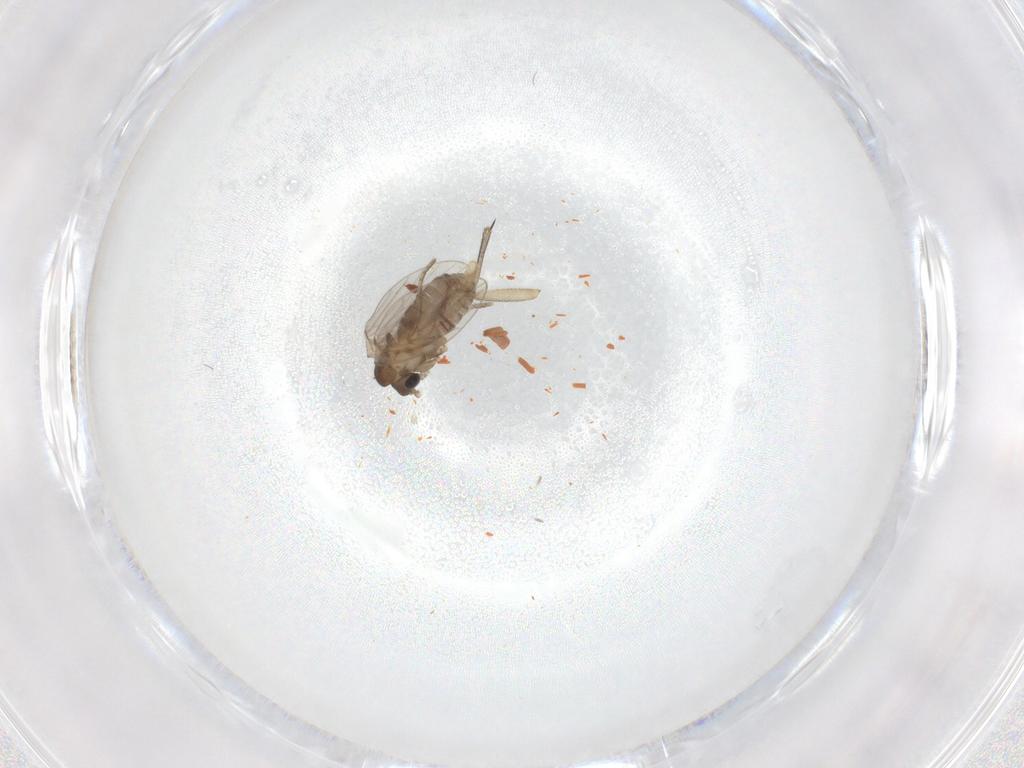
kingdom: Animalia
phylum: Arthropoda
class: Insecta
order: Diptera
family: Keroplatidae
